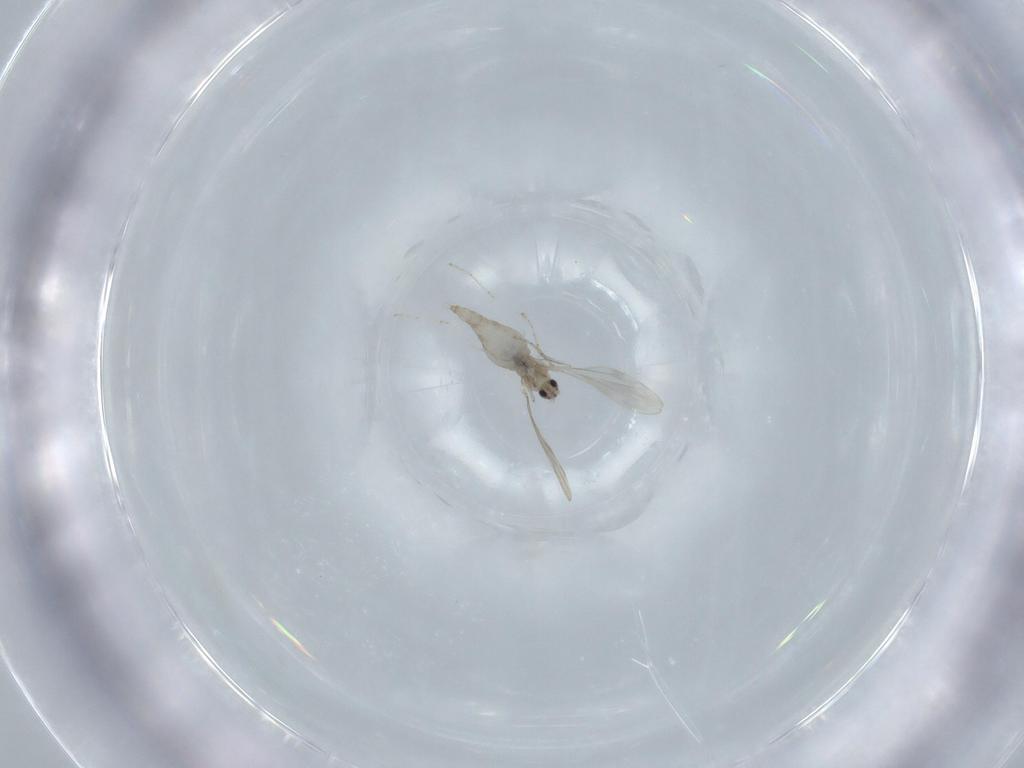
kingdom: Animalia
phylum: Arthropoda
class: Insecta
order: Diptera
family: Cecidomyiidae
